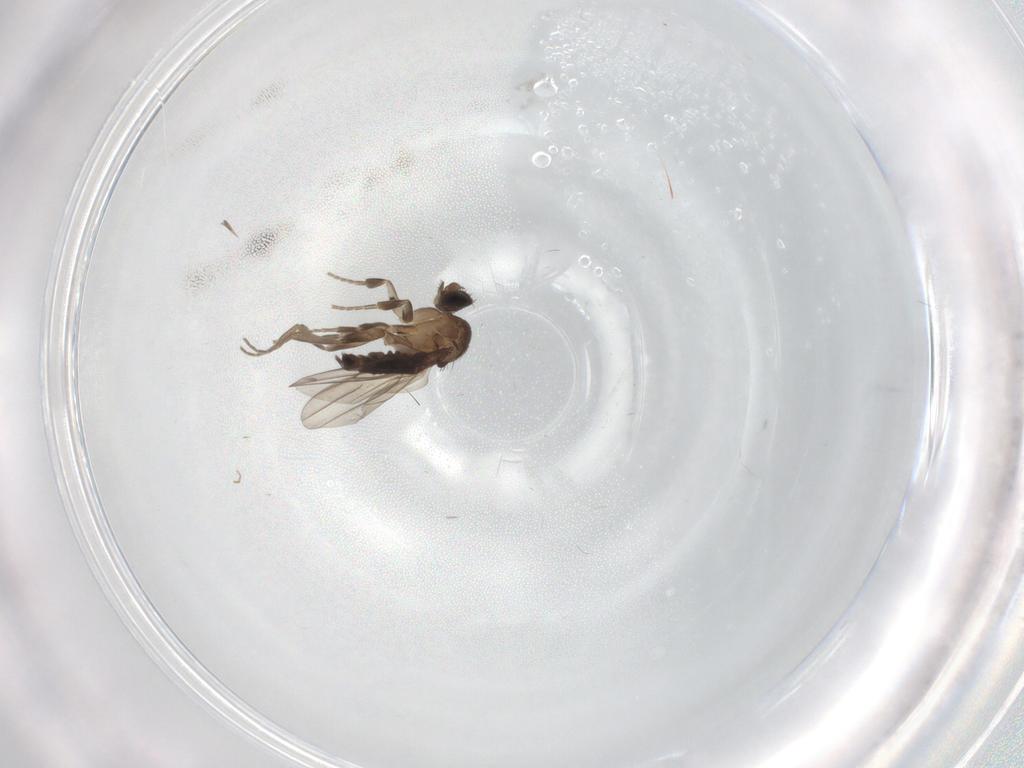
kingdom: Animalia
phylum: Arthropoda
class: Insecta
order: Diptera
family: Phoridae
